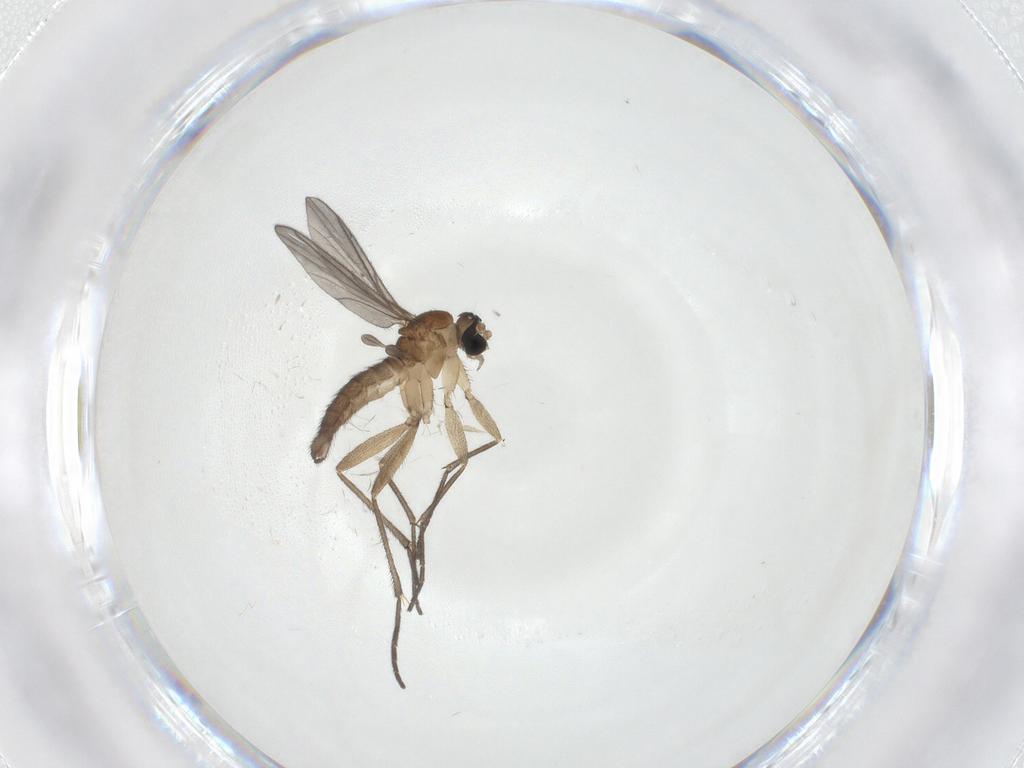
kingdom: Animalia
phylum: Arthropoda
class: Insecta
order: Diptera
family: Sciaridae
